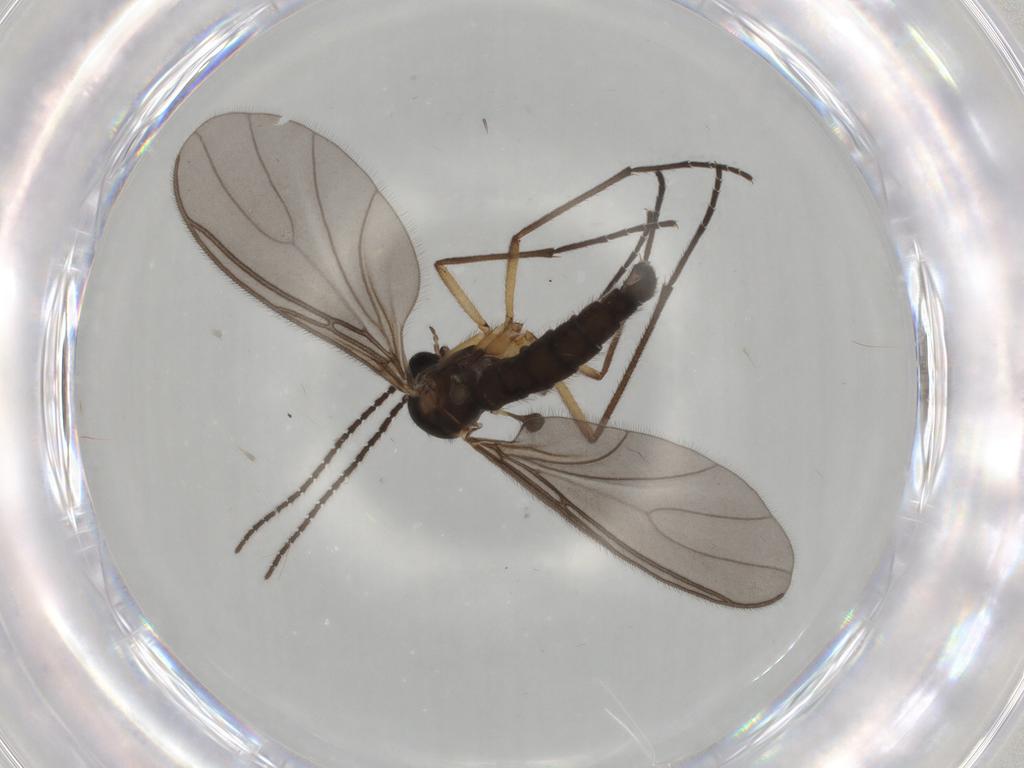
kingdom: Animalia
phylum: Arthropoda
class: Insecta
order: Diptera
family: Sciaridae
